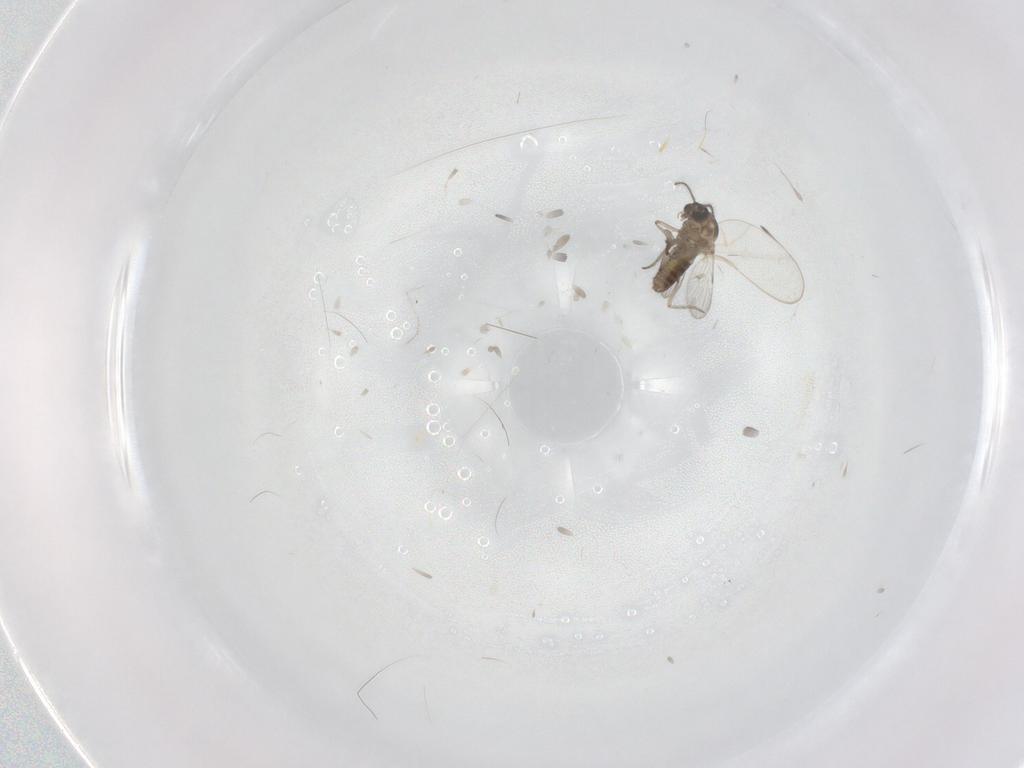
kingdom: Animalia
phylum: Arthropoda
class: Insecta
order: Diptera
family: Ceratopogonidae
